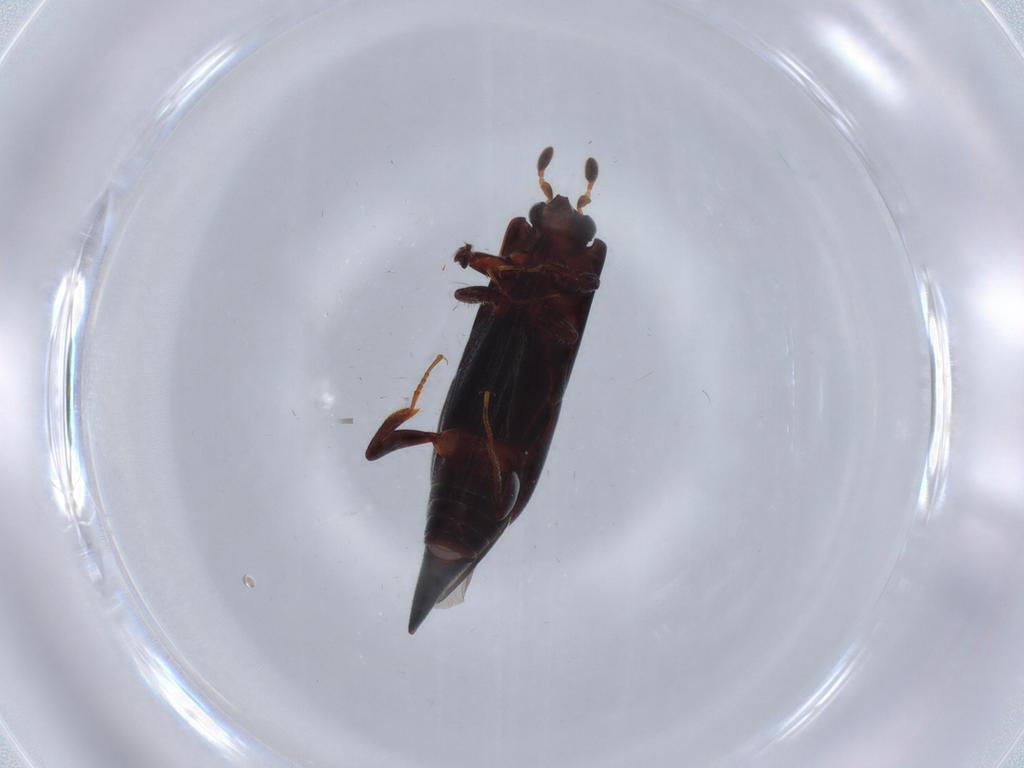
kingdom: Animalia
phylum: Arthropoda
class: Insecta
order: Coleoptera
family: Histeridae
